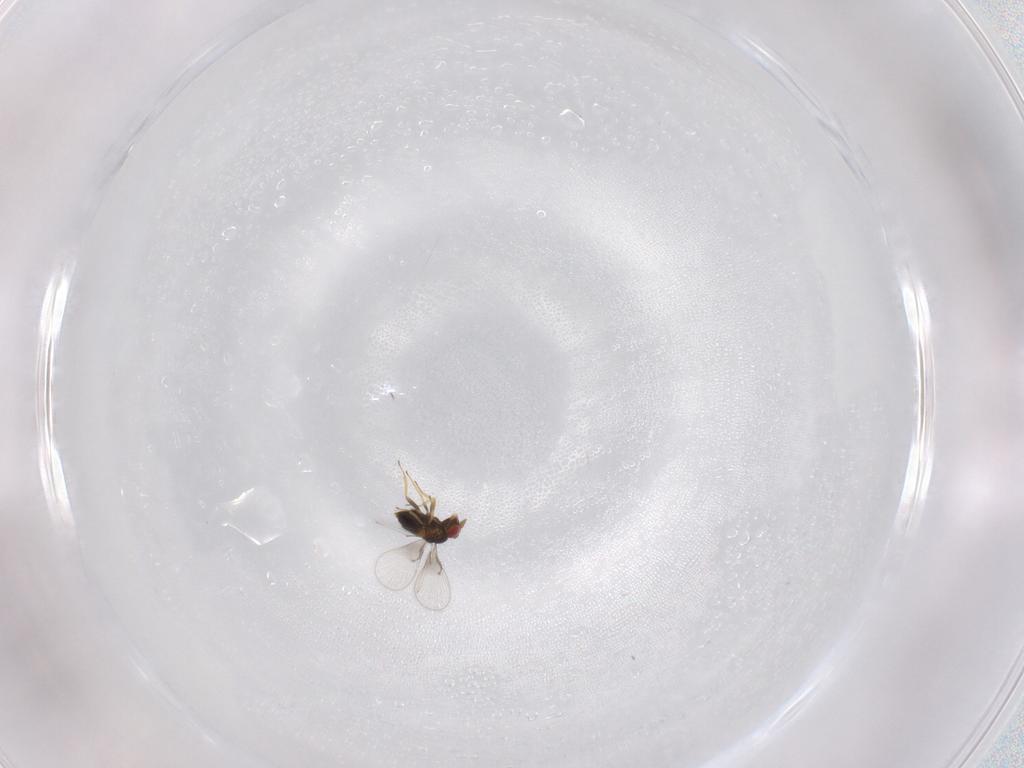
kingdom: Animalia
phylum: Arthropoda
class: Insecta
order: Hymenoptera
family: Trichogrammatidae
